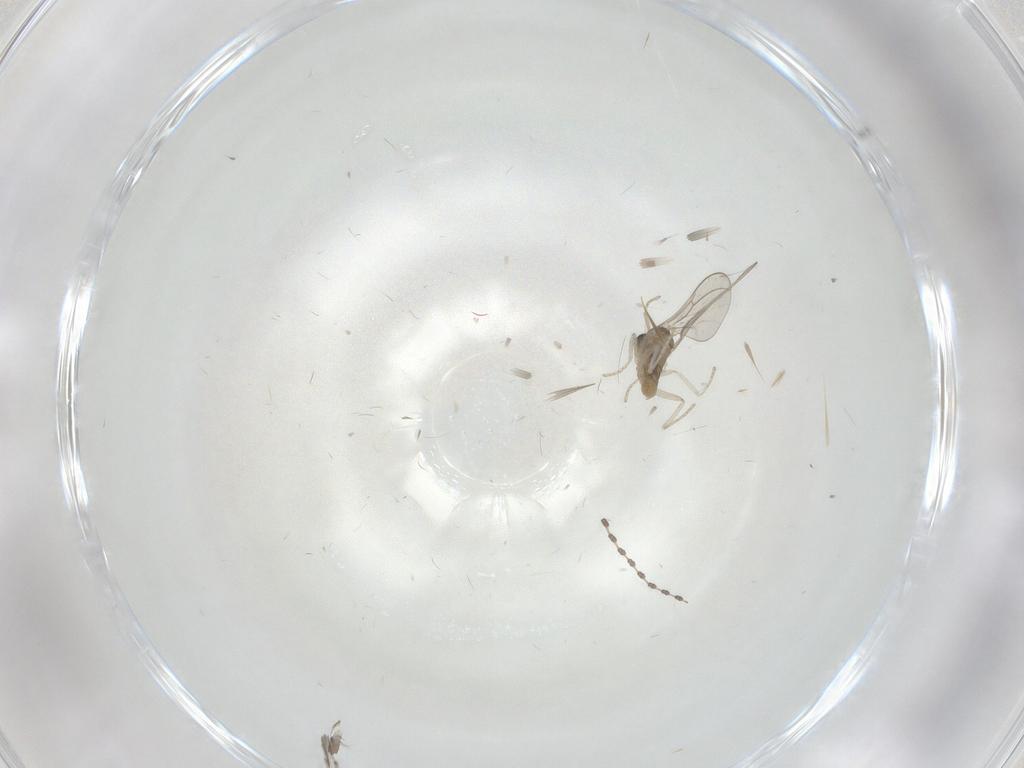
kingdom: Animalia
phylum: Arthropoda
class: Insecta
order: Diptera
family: Cecidomyiidae
